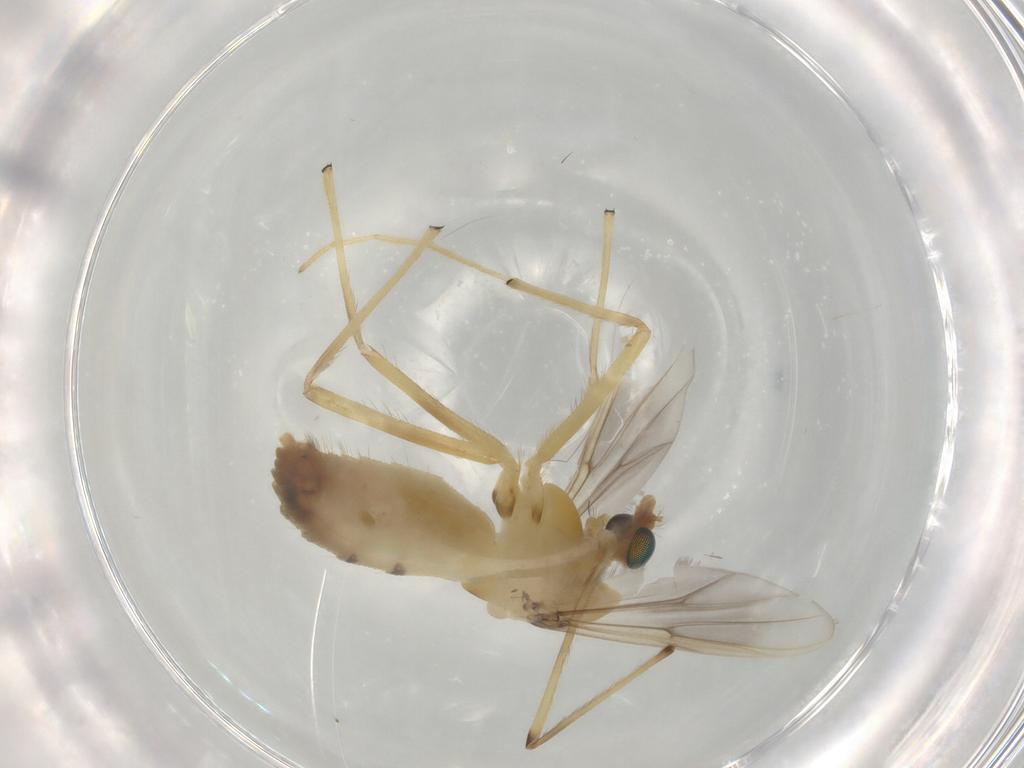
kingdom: Animalia
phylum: Arthropoda
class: Insecta
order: Diptera
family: Chironomidae
